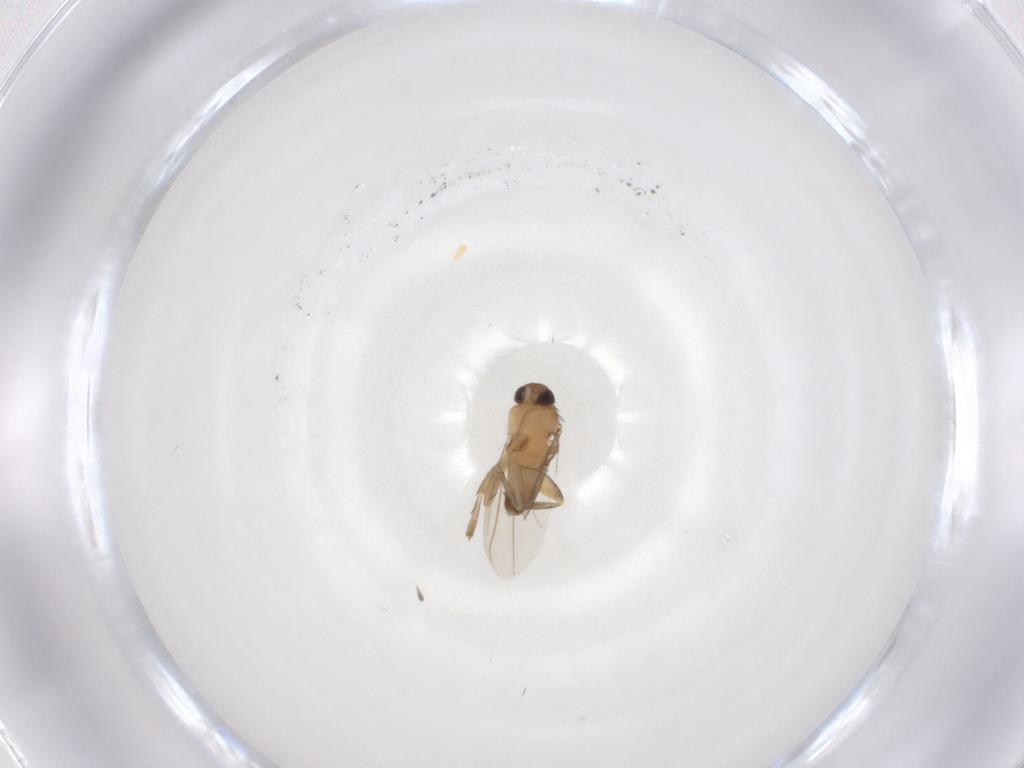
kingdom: Animalia
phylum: Arthropoda
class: Insecta
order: Diptera
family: Phoridae
